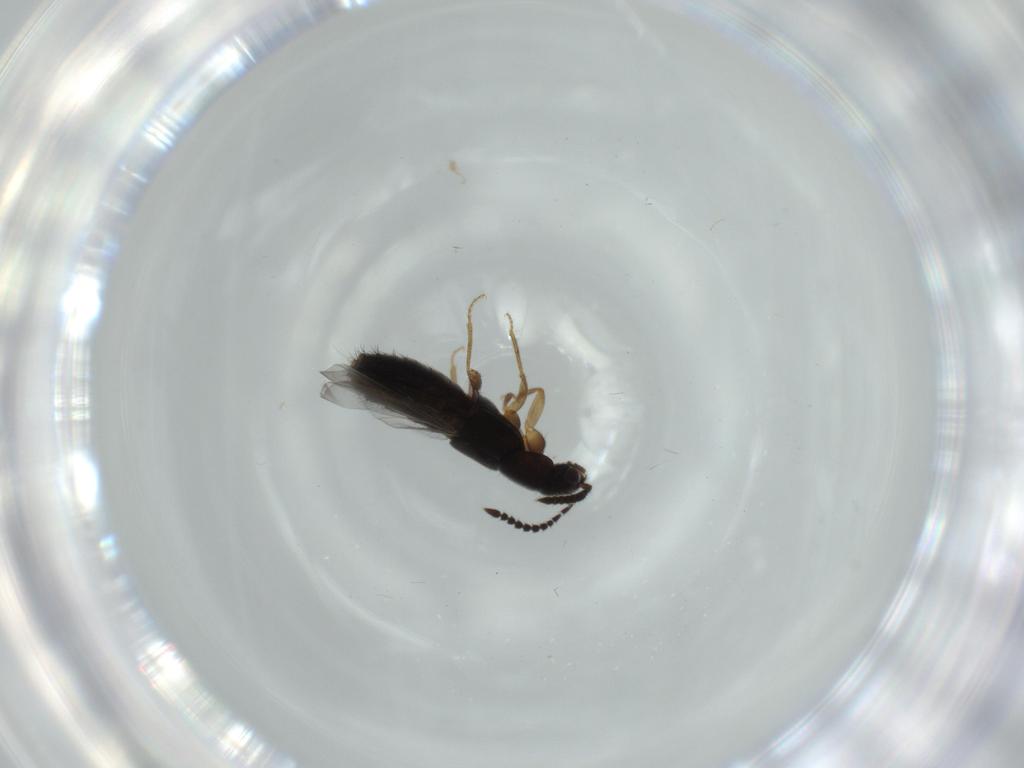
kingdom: Animalia
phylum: Arthropoda
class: Insecta
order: Coleoptera
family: Staphylinidae
